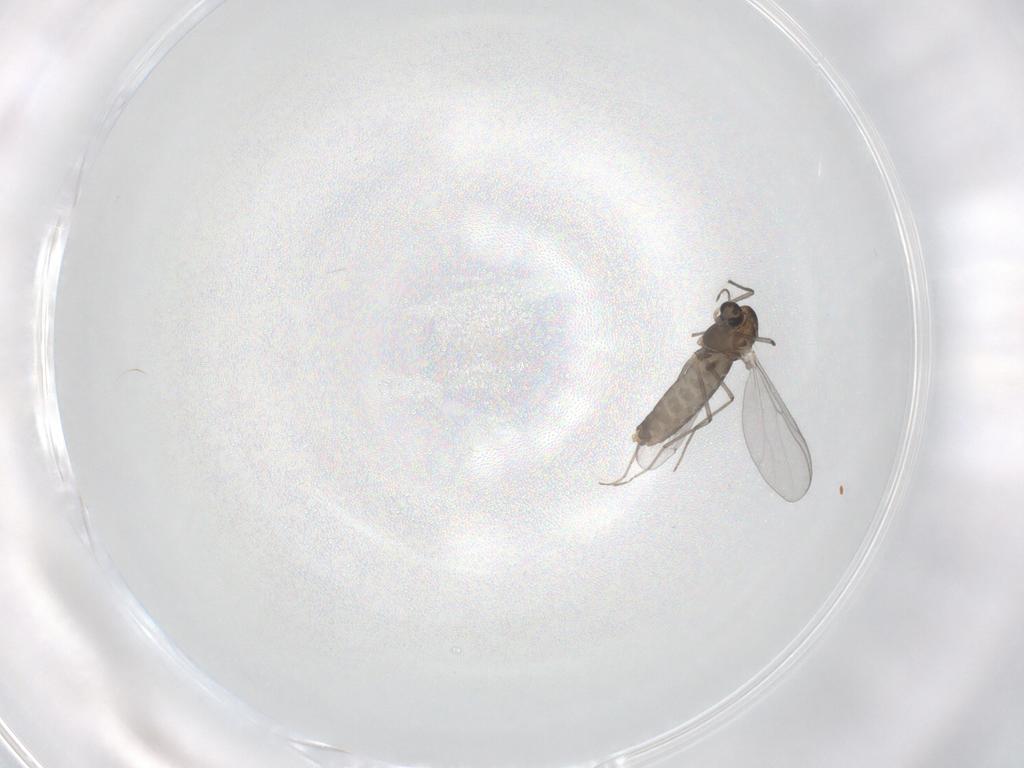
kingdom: Animalia
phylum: Arthropoda
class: Insecta
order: Diptera
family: Chironomidae
